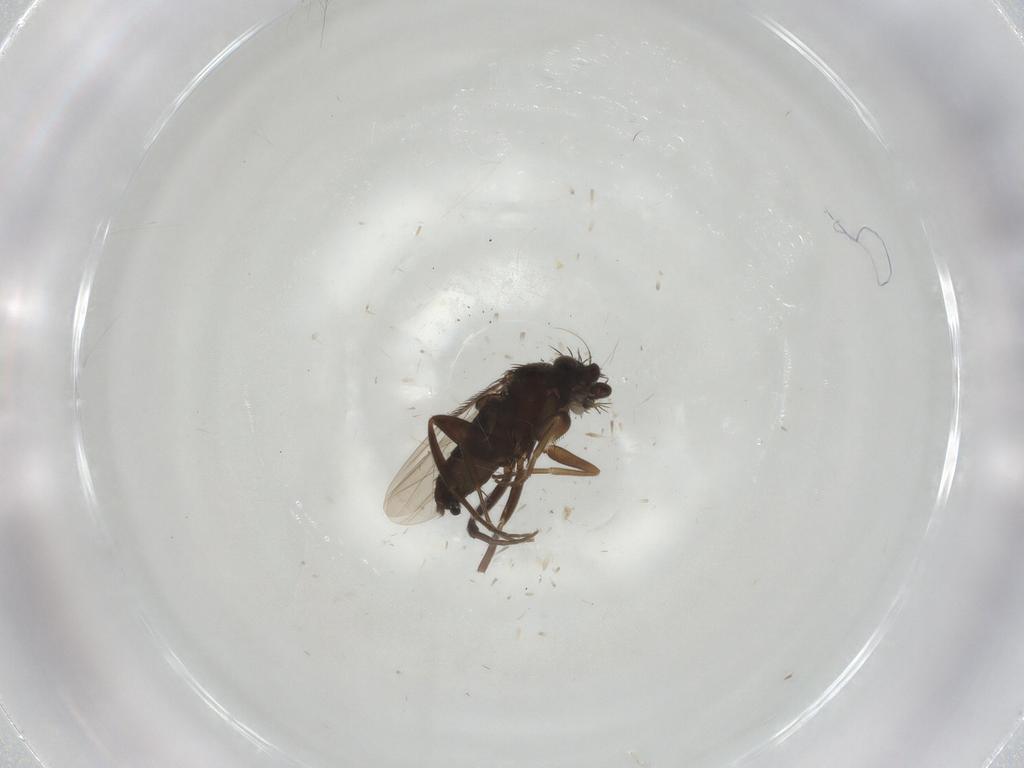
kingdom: Animalia
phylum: Arthropoda
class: Insecta
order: Diptera
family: Phoridae
